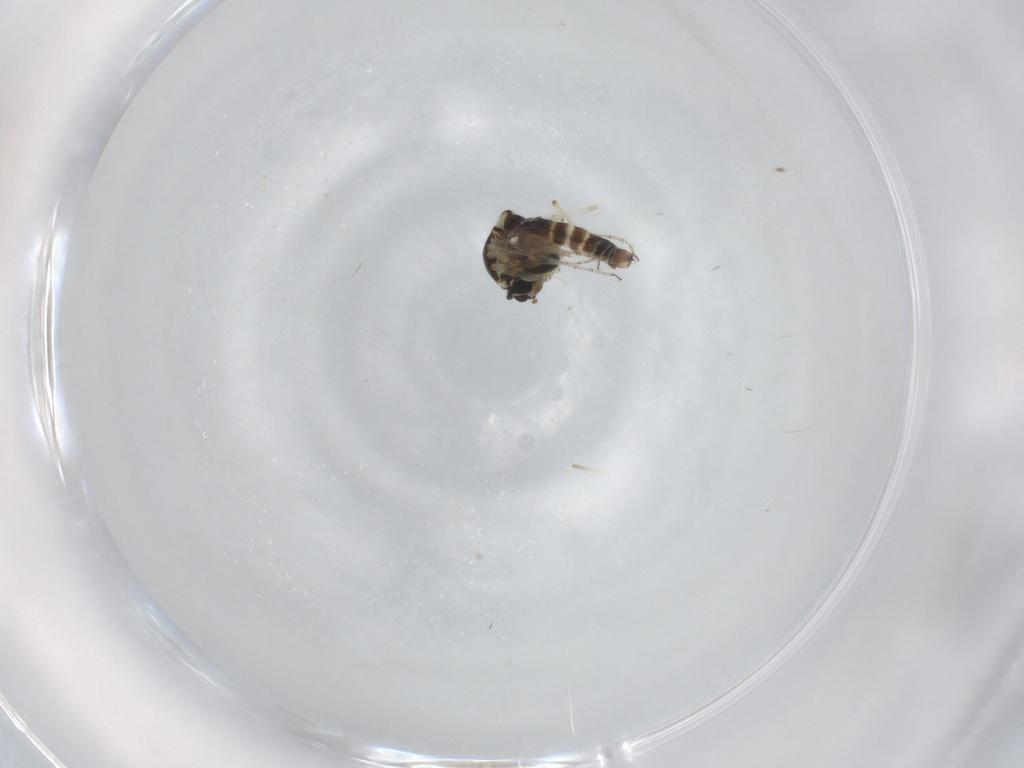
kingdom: Animalia
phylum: Arthropoda
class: Insecta
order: Diptera
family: Ceratopogonidae
